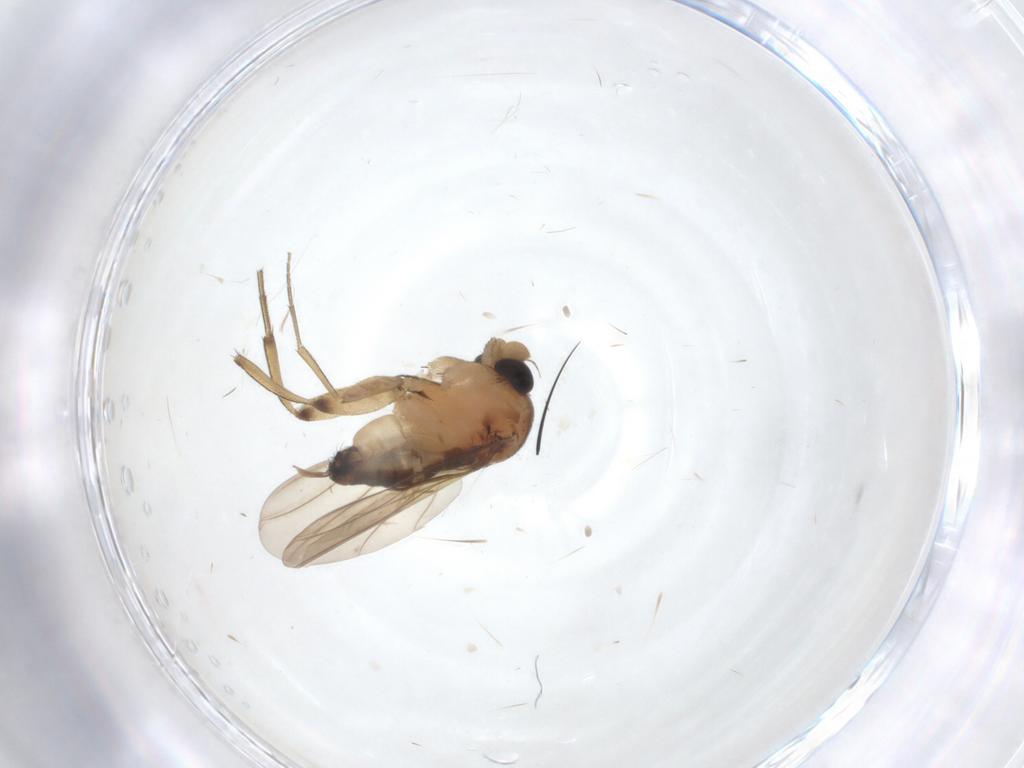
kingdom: Animalia
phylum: Arthropoda
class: Insecta
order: Diptera
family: Phoridae
